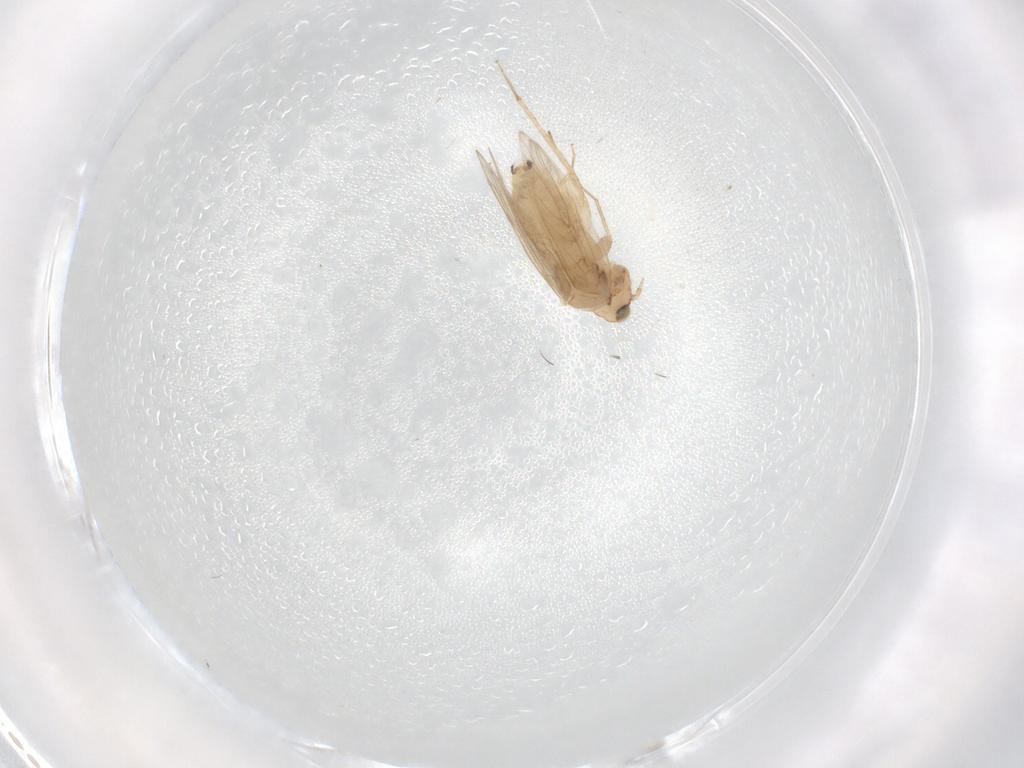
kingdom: Animalia
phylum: Arthropoda
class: Insecta
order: Psocodea
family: Lepidopsocidae
